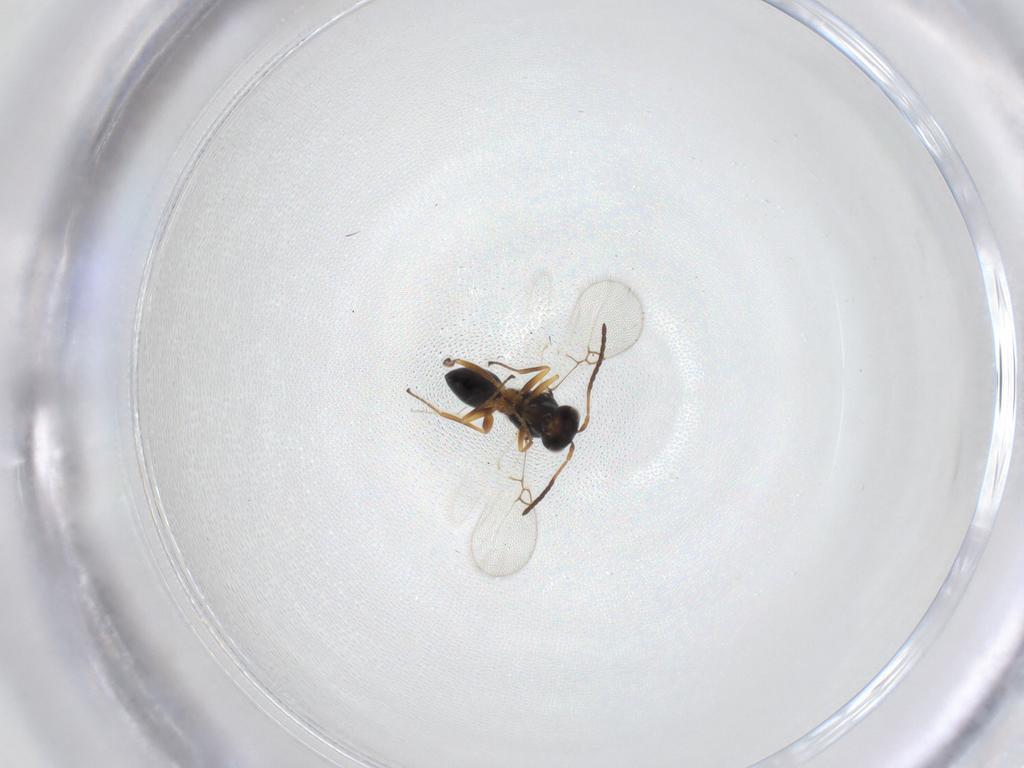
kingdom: Animalia
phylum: Arthropoda
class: Insecta
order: Hymenoptera
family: Figitidae
